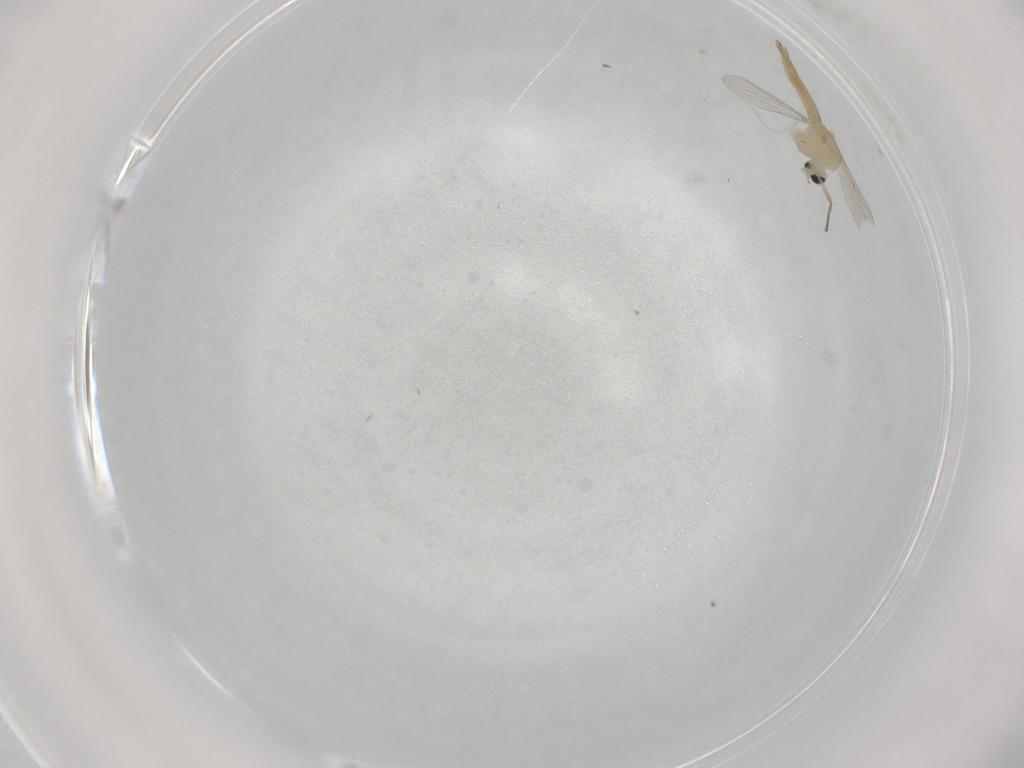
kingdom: Animalia
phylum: Arthropoda
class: Insecta
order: Diptera
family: Chironomidae
